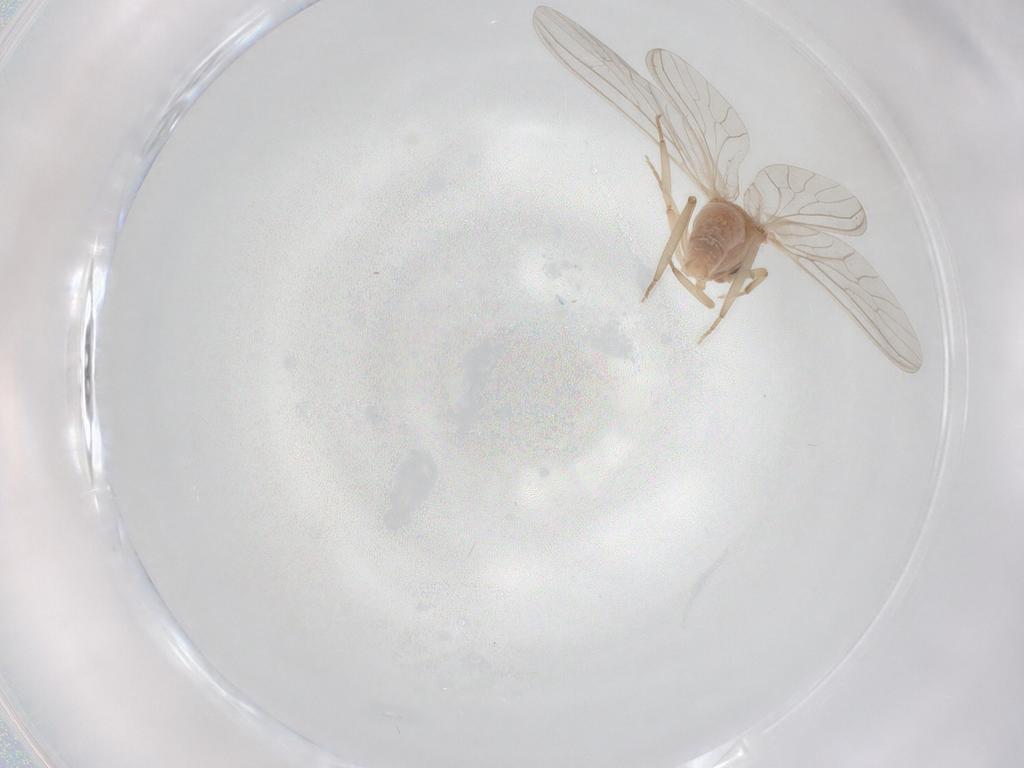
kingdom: Animalia
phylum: Arthropoda
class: Insecta
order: Neuroptera
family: Coniopterygidae
